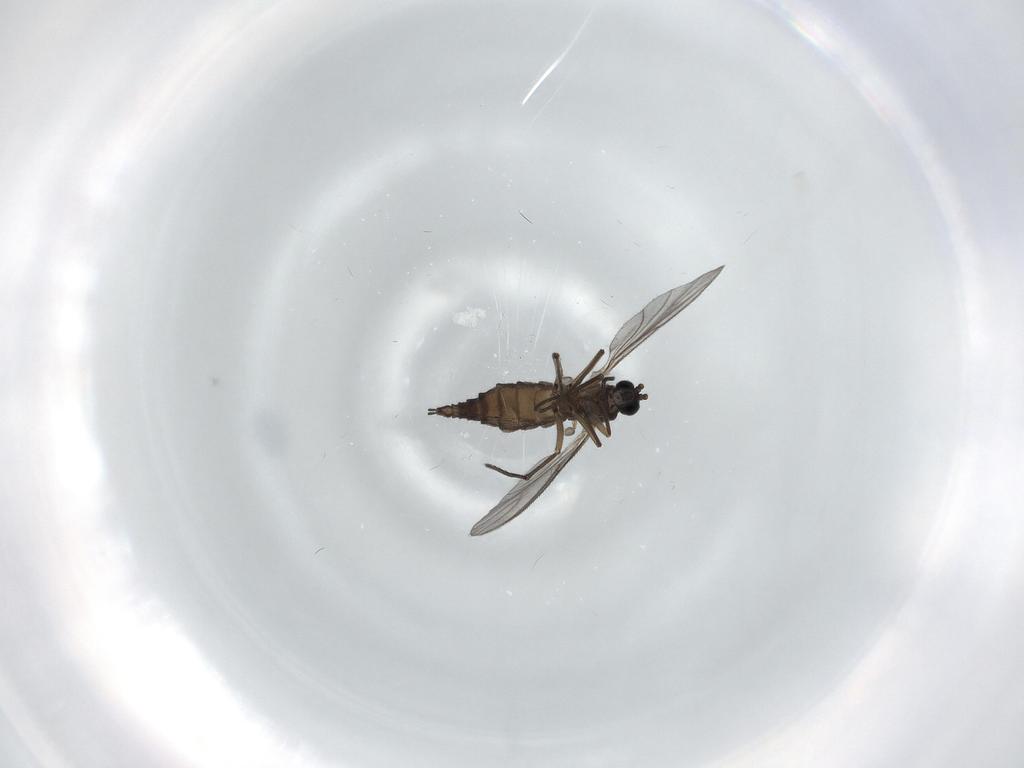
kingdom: Animalia
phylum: Arthropoda
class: Insecta
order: Diptera
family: Sciaridae
